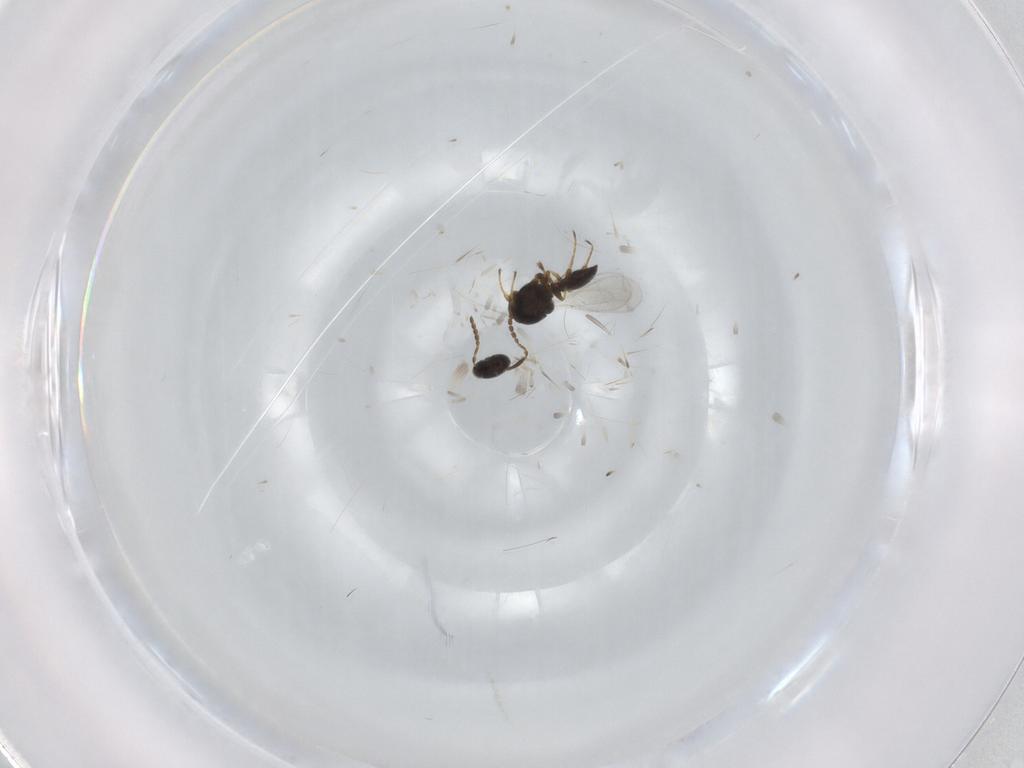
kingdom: Animalia
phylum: Arthropoda
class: Insecta
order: Hymenoptera
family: Platygastridae
